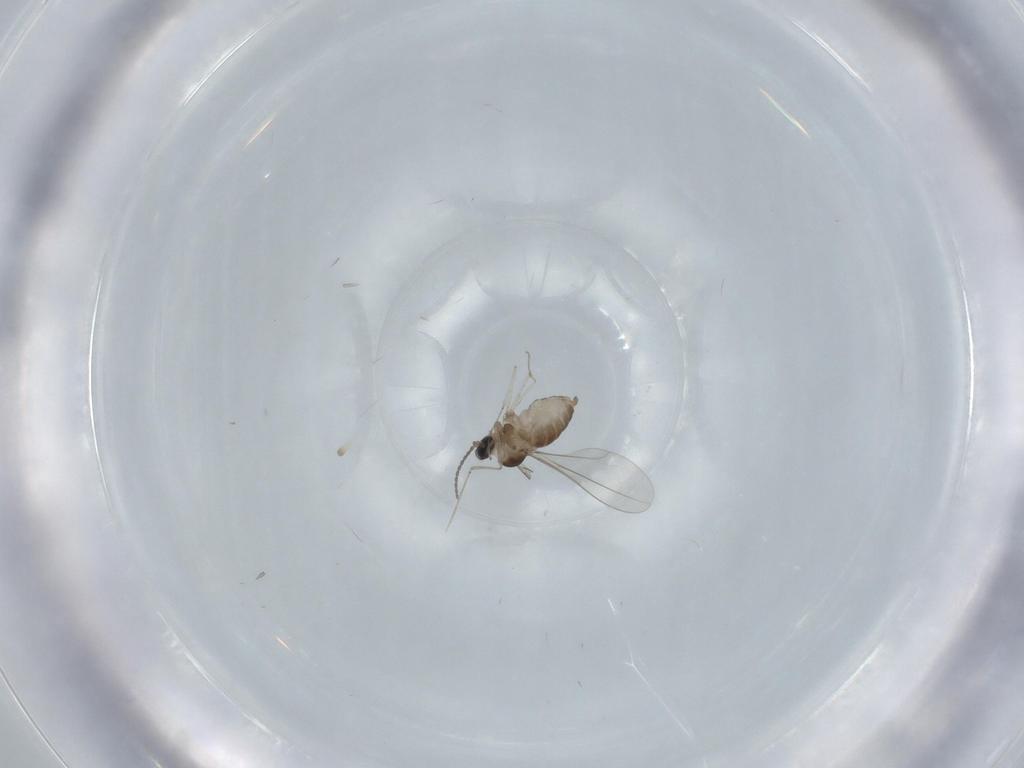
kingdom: Animalia
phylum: Arthropoda
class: Insecta
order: Diptera
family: Cecidomyiidae
